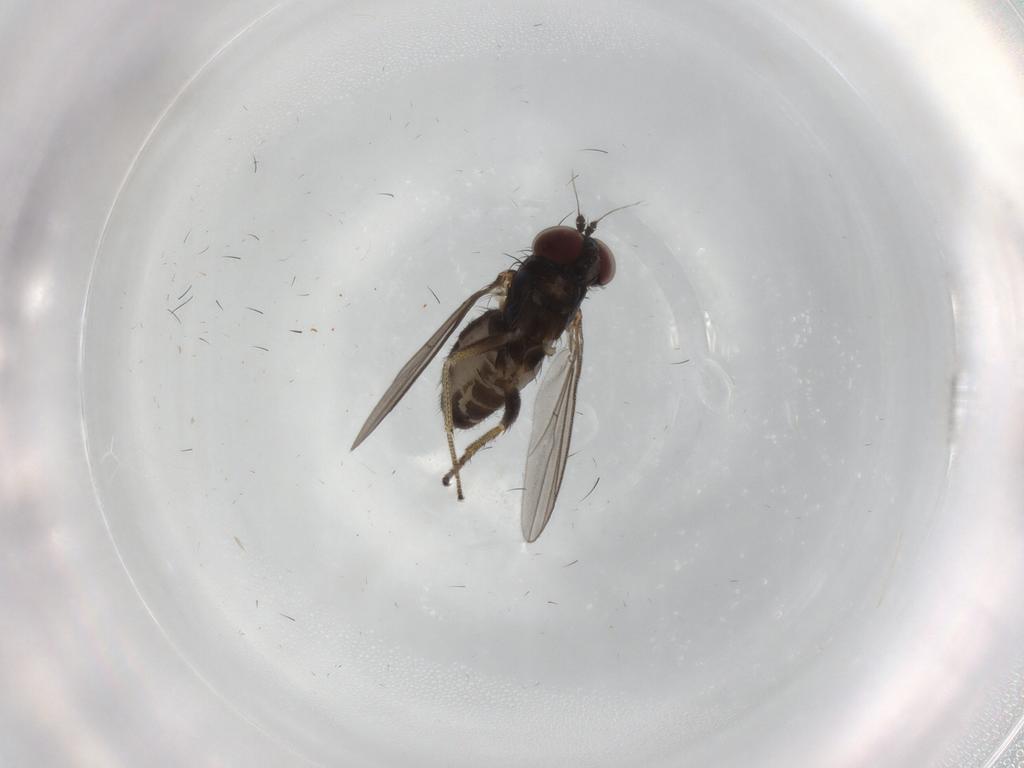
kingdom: Animalia
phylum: Arthropoda
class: Insecta
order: Diptera
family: Dolichopodidae
